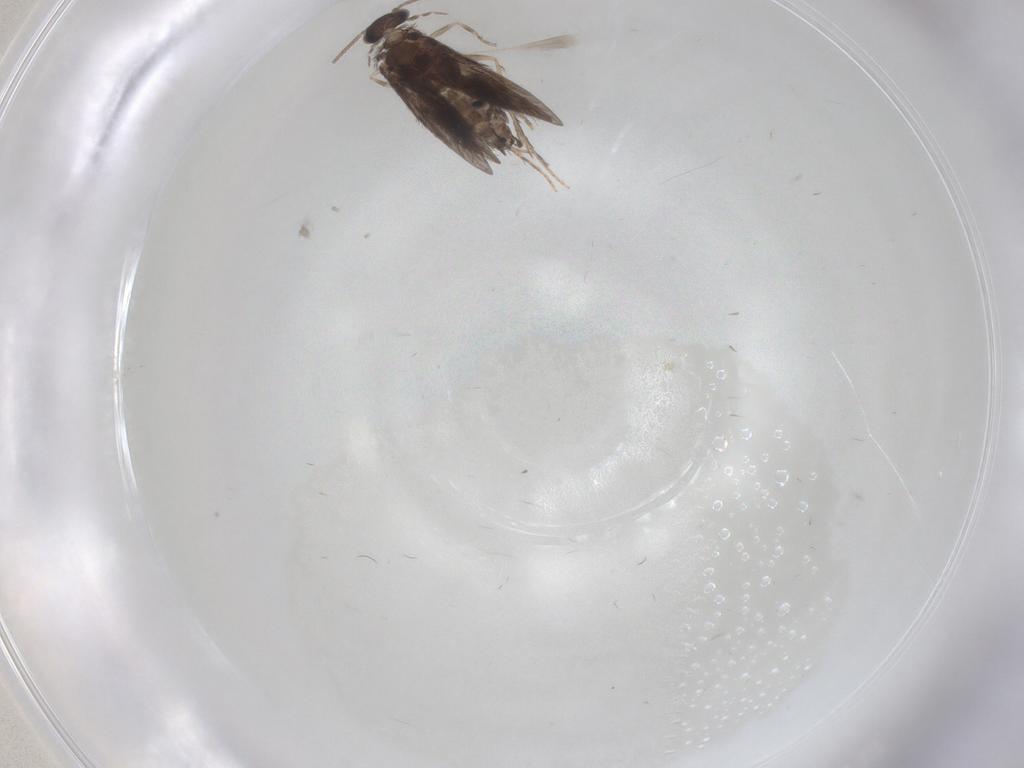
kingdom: Animalia
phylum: Arthropoda
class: Insecta
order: Trichoptera
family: Hydroptilidae
